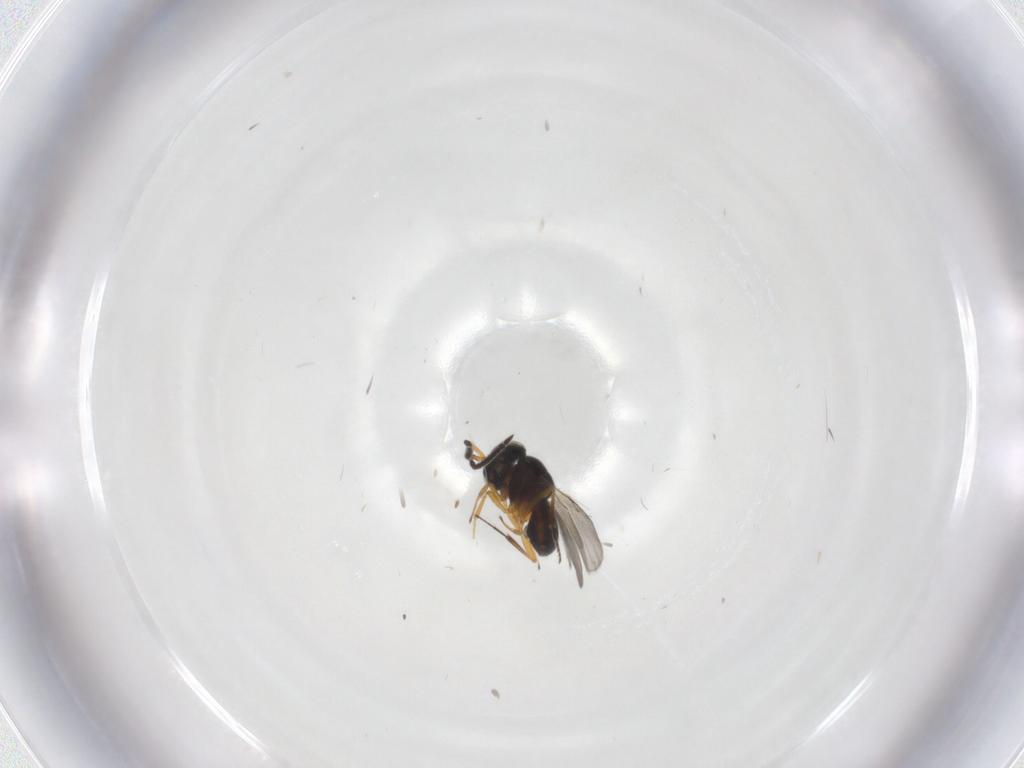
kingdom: Animalia
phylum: Arthropoda
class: Insecta
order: Hymenoptera
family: Scelionidae
